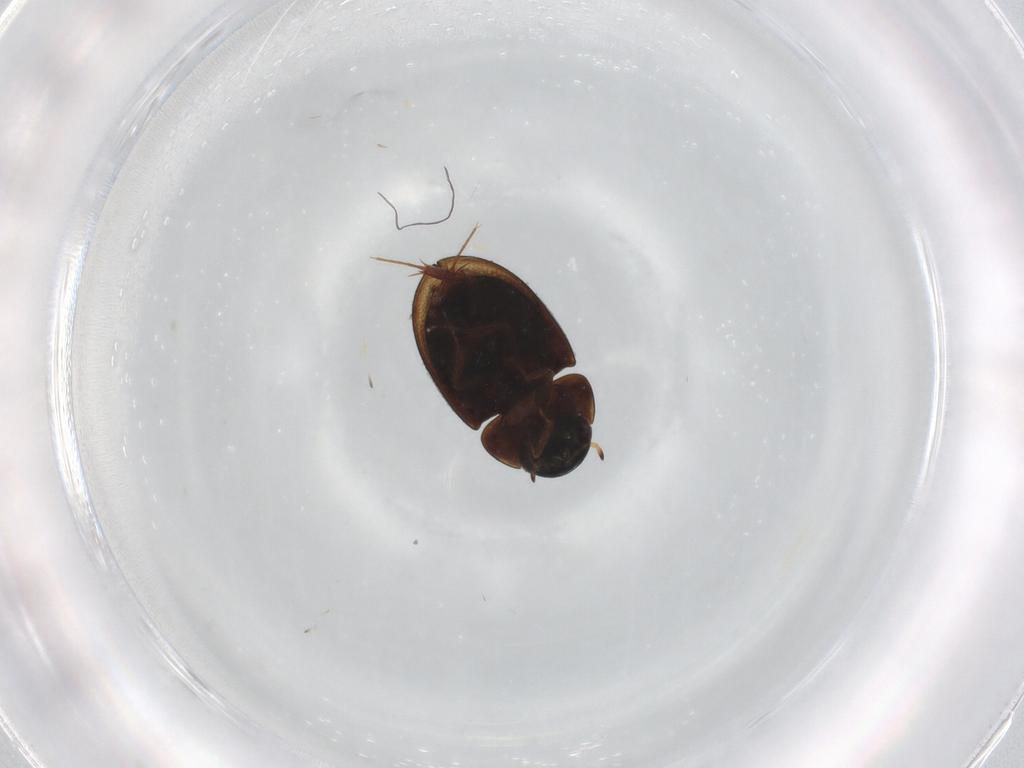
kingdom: Animalia
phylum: Arthropoda
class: Insecta
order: Coleoptera
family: Hydrophilidae
